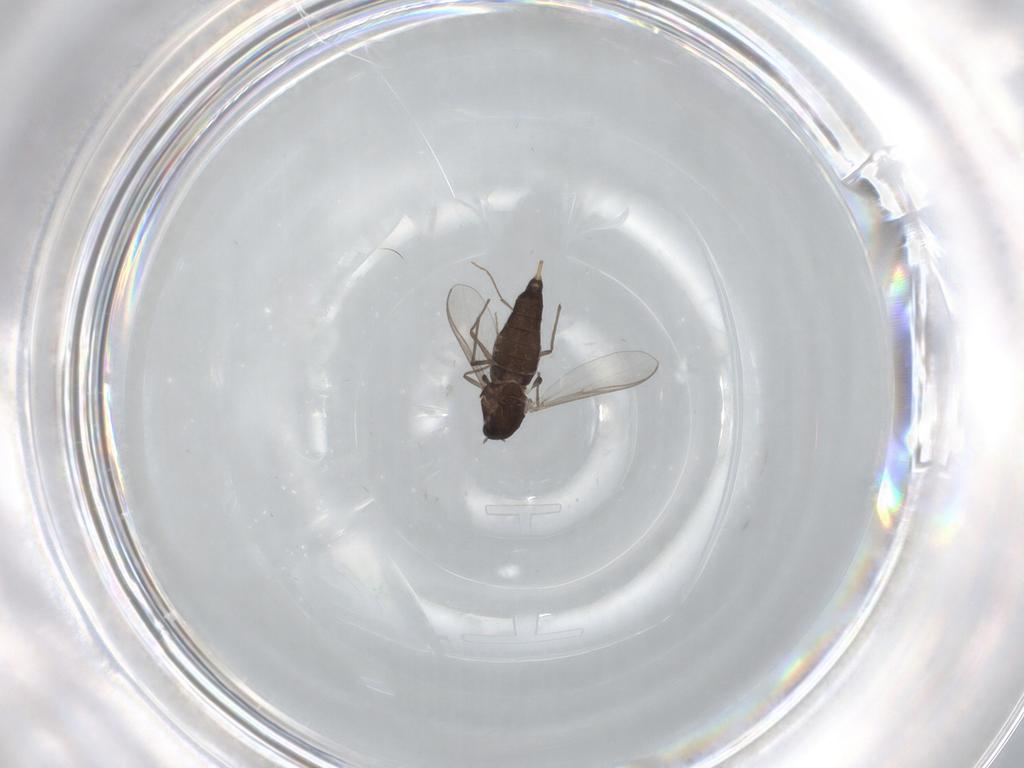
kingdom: Animalia
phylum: Arthropoda
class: Insecta
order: Diptera
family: Chironomidae
